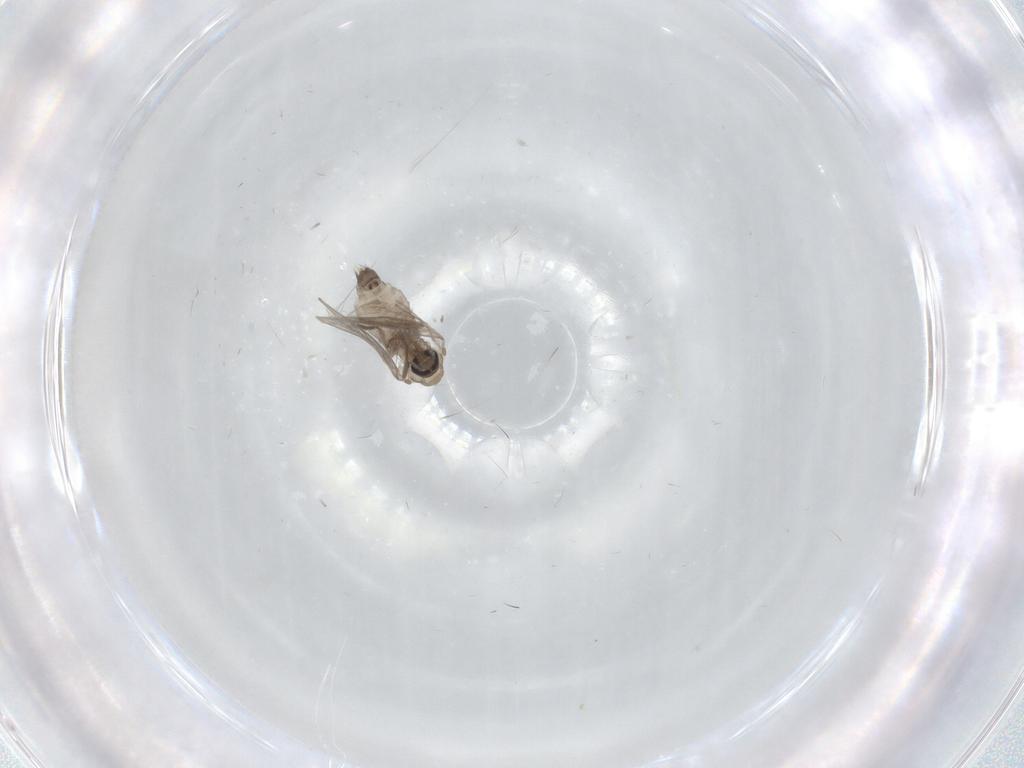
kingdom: Animalia
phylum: Arthropoda
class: Insecta
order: Diptera
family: Psychodidae
